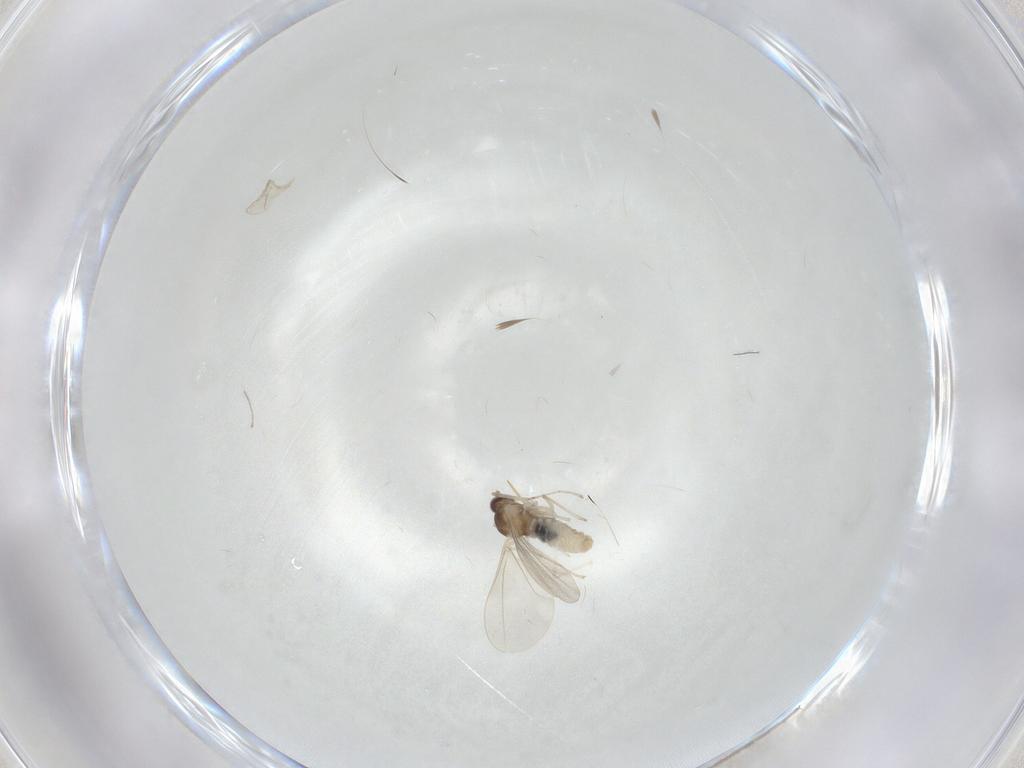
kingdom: Animalia
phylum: Arthropoda
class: Insecta
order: Diptera
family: Cecidomyiidae
